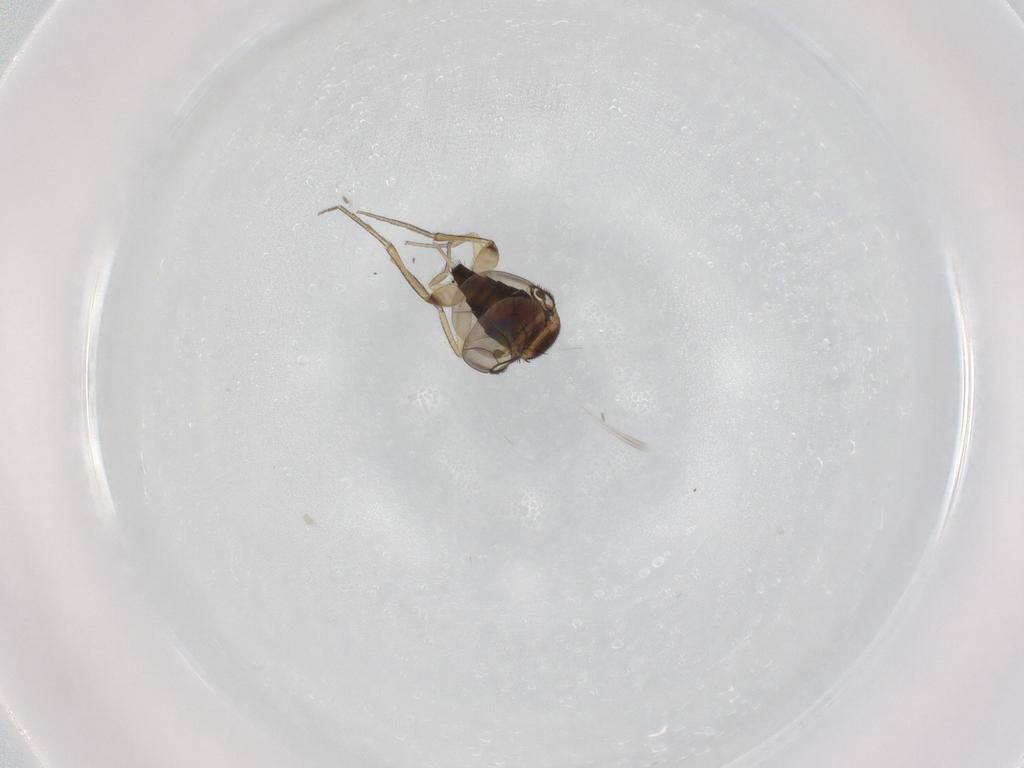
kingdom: Animalia
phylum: Arthropoda
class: Insecta
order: Diptera
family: Phoridae
